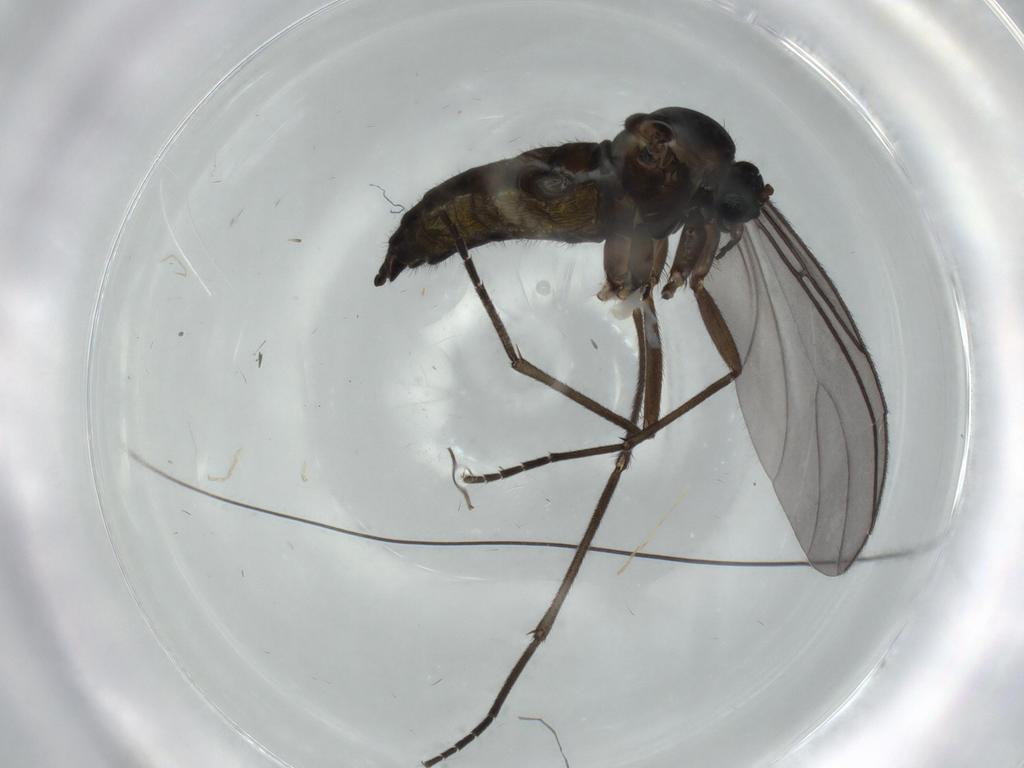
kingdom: Animalia
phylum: Arthropoda
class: Insecta
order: Diptera
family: Sciaridae
